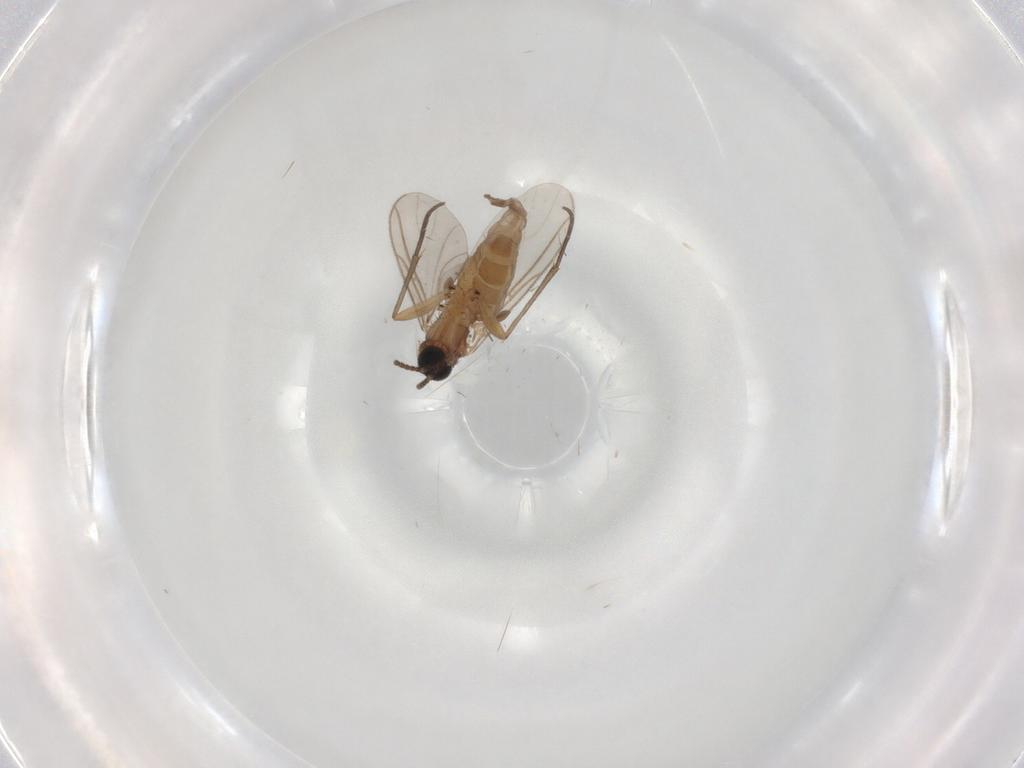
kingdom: Animalia
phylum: Arthropoda
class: Insecta
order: Diptera
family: Sciaridae
